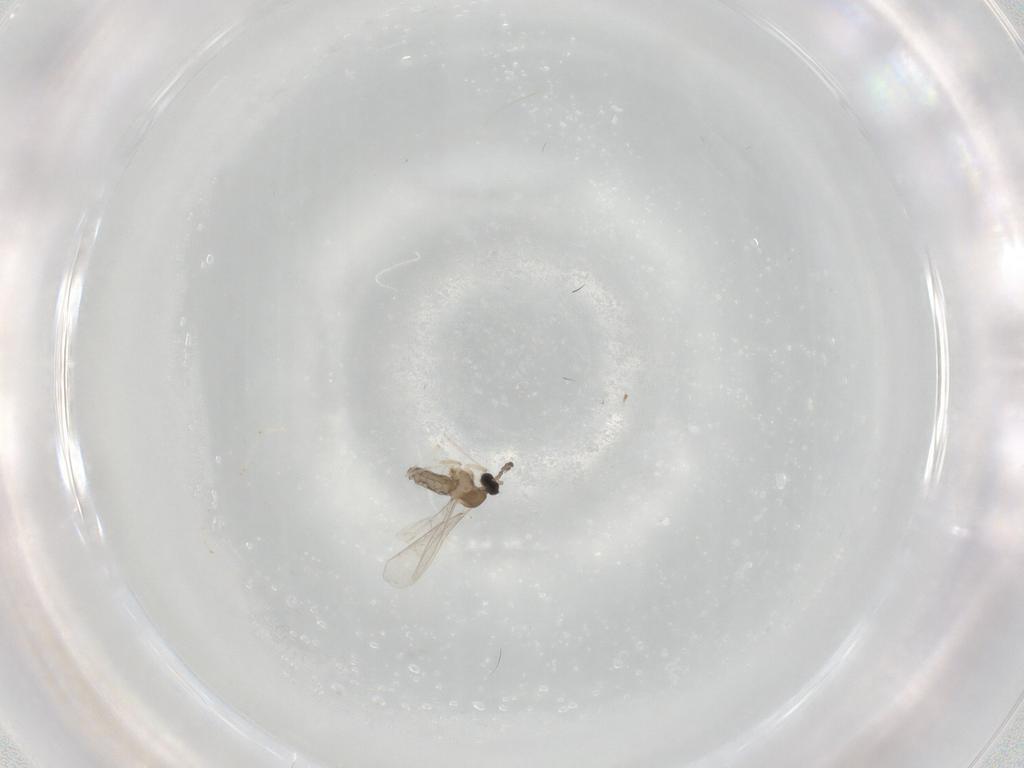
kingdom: Animalia
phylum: Arthropoda
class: Insecta
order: Diptera
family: Cecidomyiidae
